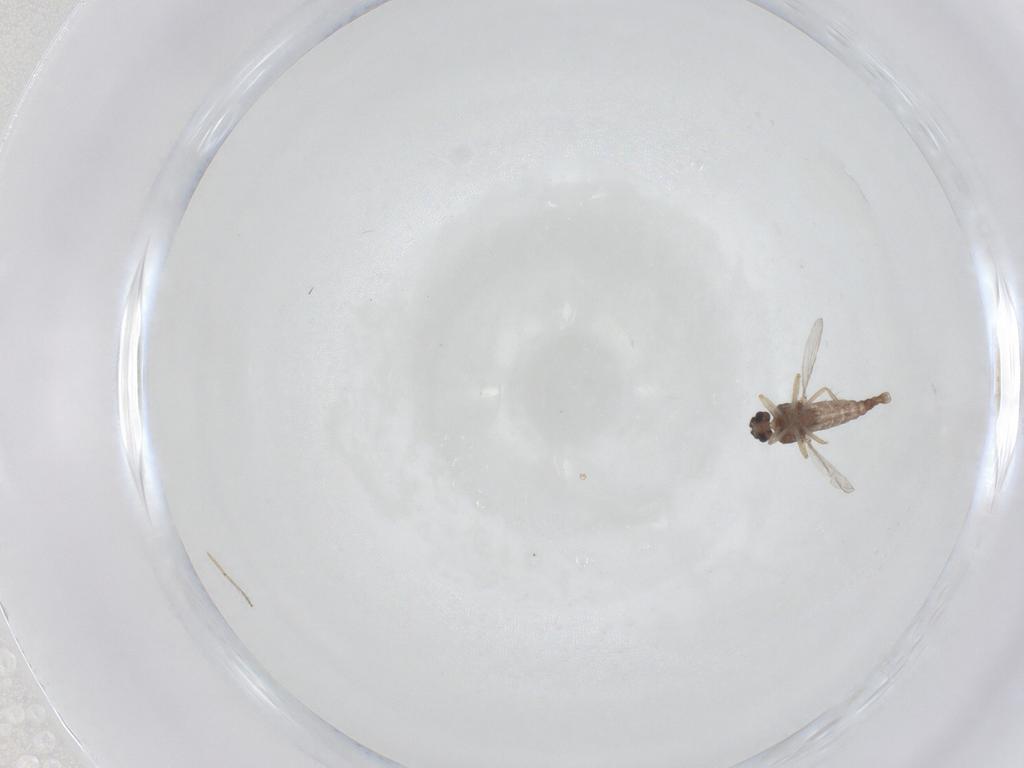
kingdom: Animalia
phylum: Arthropoda
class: Insecta
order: Diptera
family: Ceratopogonidae
